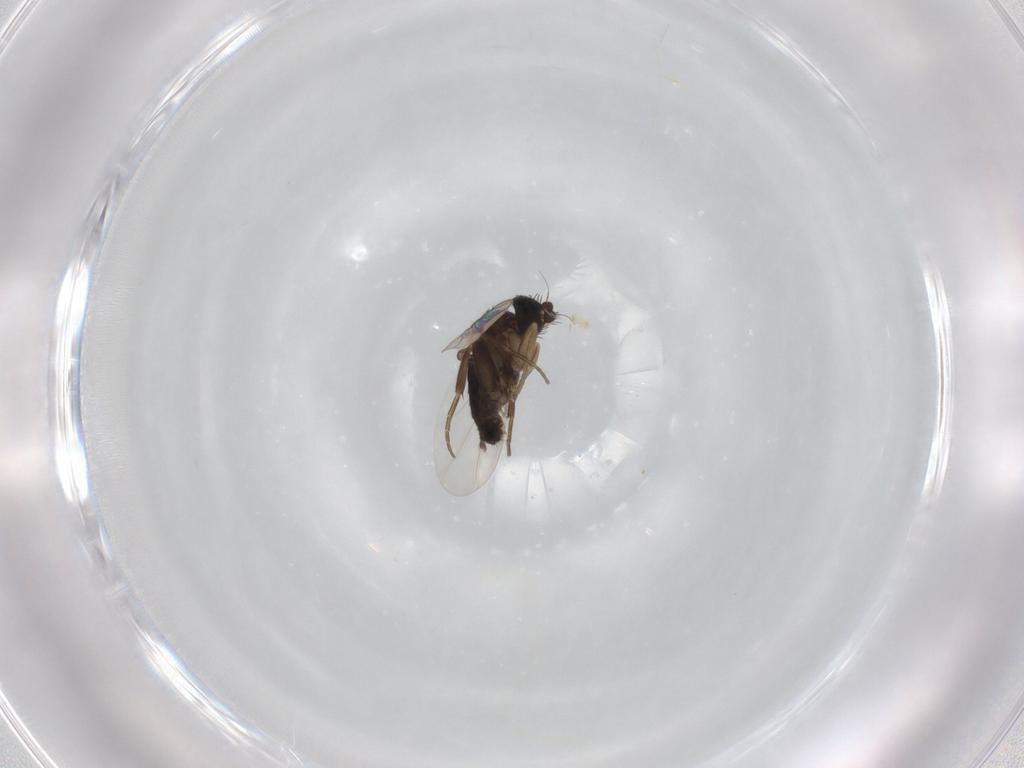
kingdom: Animalia
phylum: Arthropoda
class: Insecta
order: Diptera
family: Phoridae
